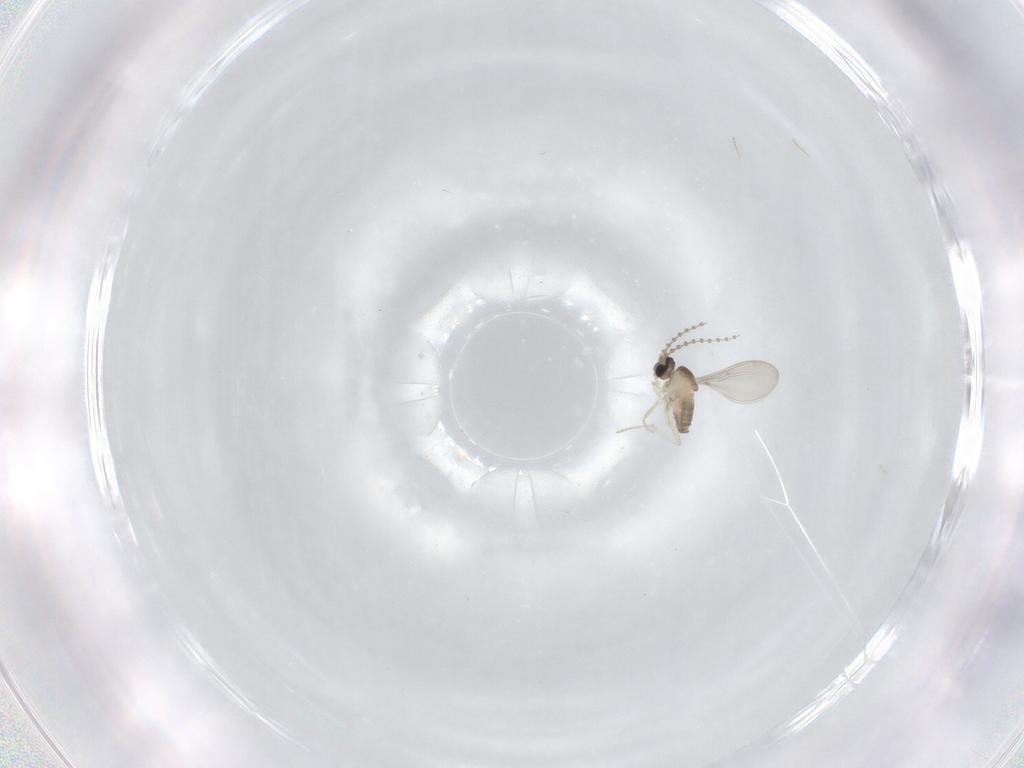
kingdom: Animalia
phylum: Arthropoda
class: Insecta
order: Diptera
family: Cecidomyiidae
